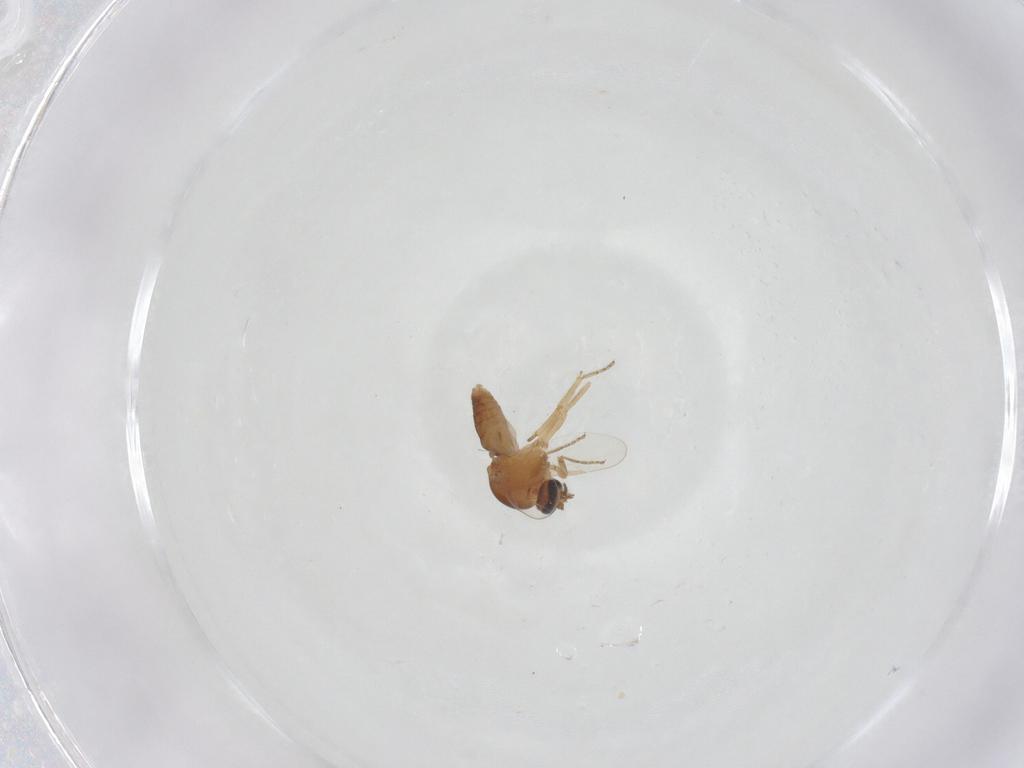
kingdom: Animalia
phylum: Arthropoda
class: Insecta
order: Diptera
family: Ceratopogonidae
